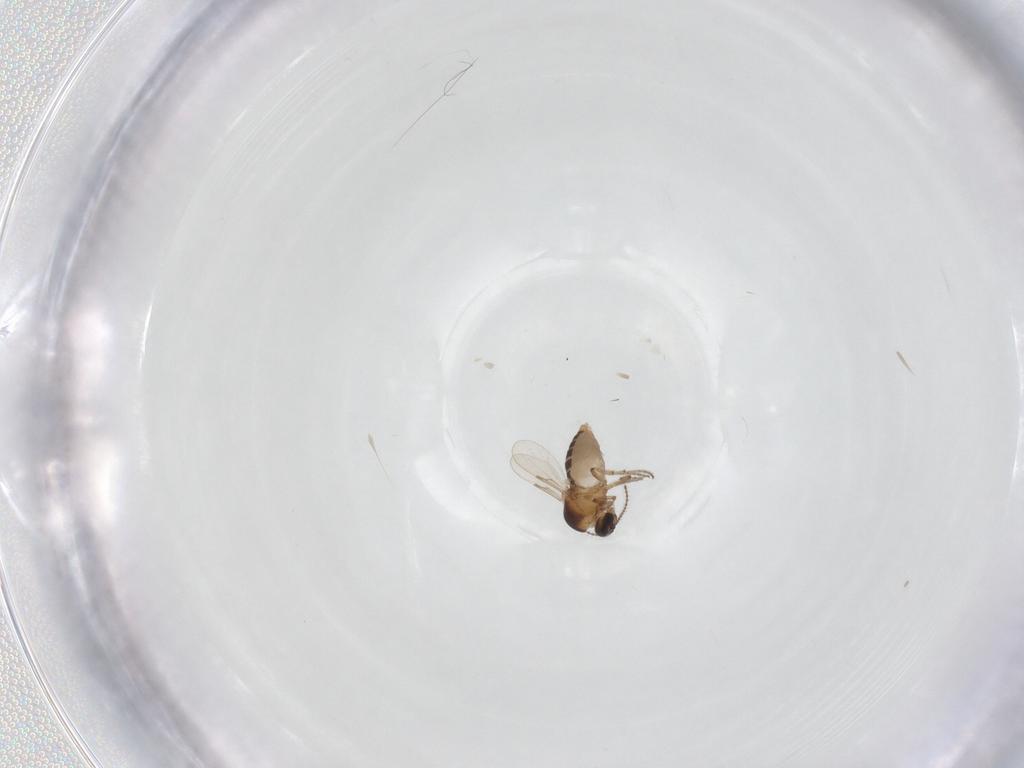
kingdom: Animalia
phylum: Arthropoda
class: Insecta
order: Diptera
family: Ceratopogonidae
